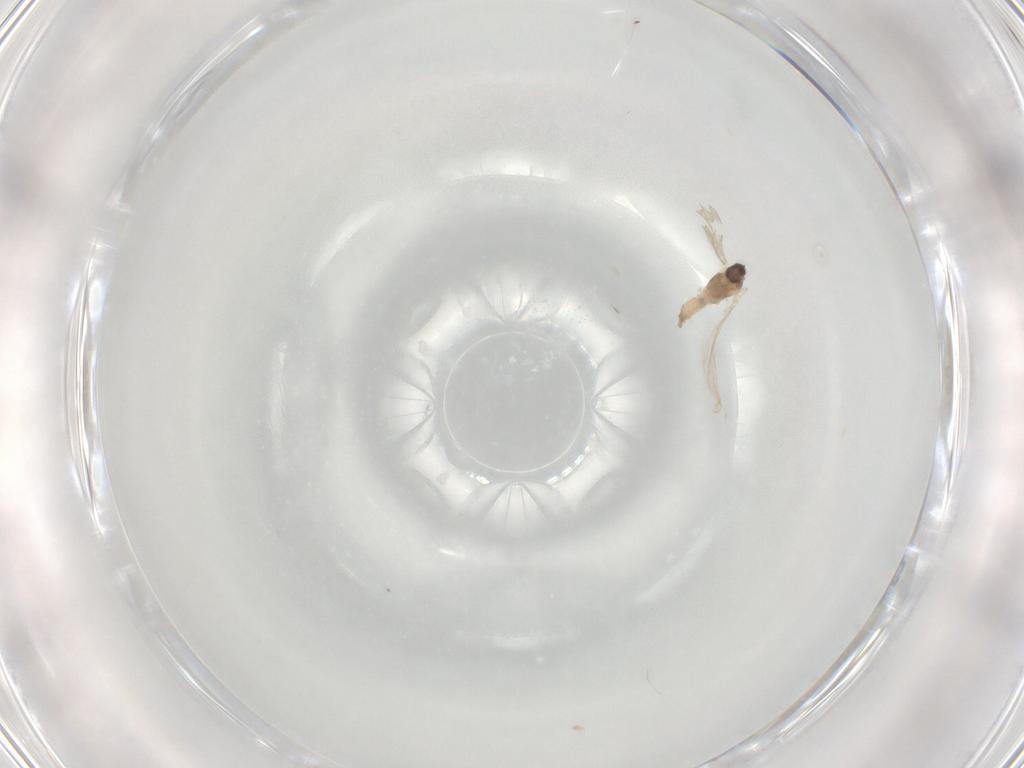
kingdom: Animalia
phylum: Arthropoda
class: Insecta
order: Diptera
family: Cecidomyiidae
